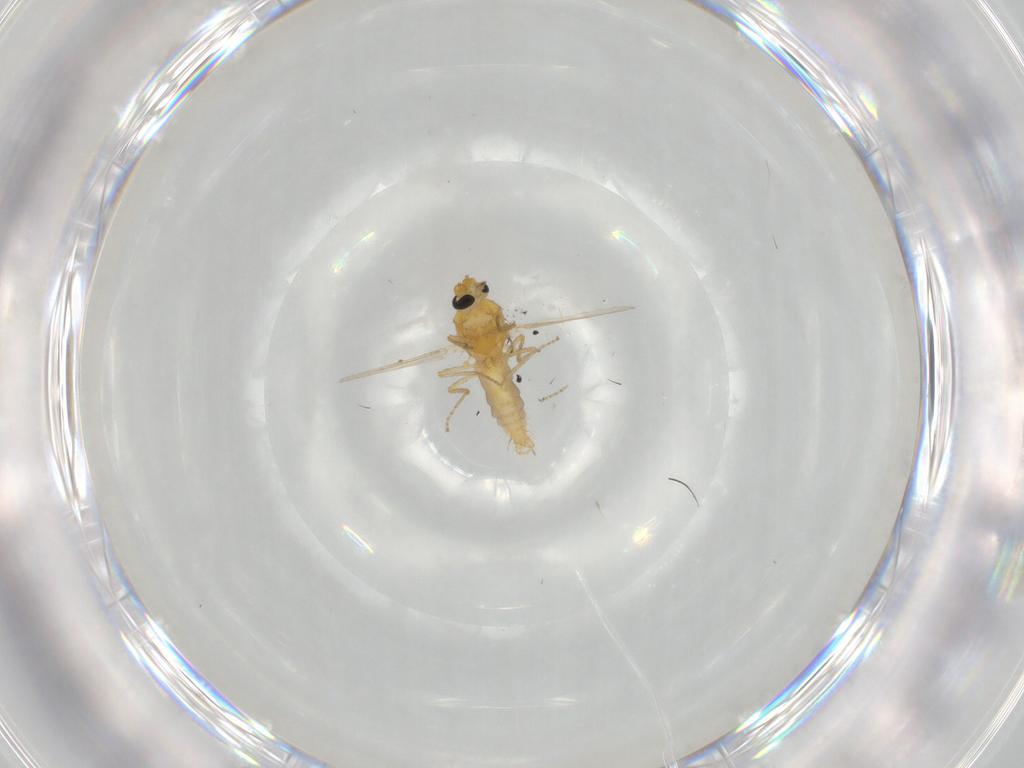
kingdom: Animalia
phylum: Arthropoda
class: Insecta
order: Diptera
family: Ceratopogonidae
